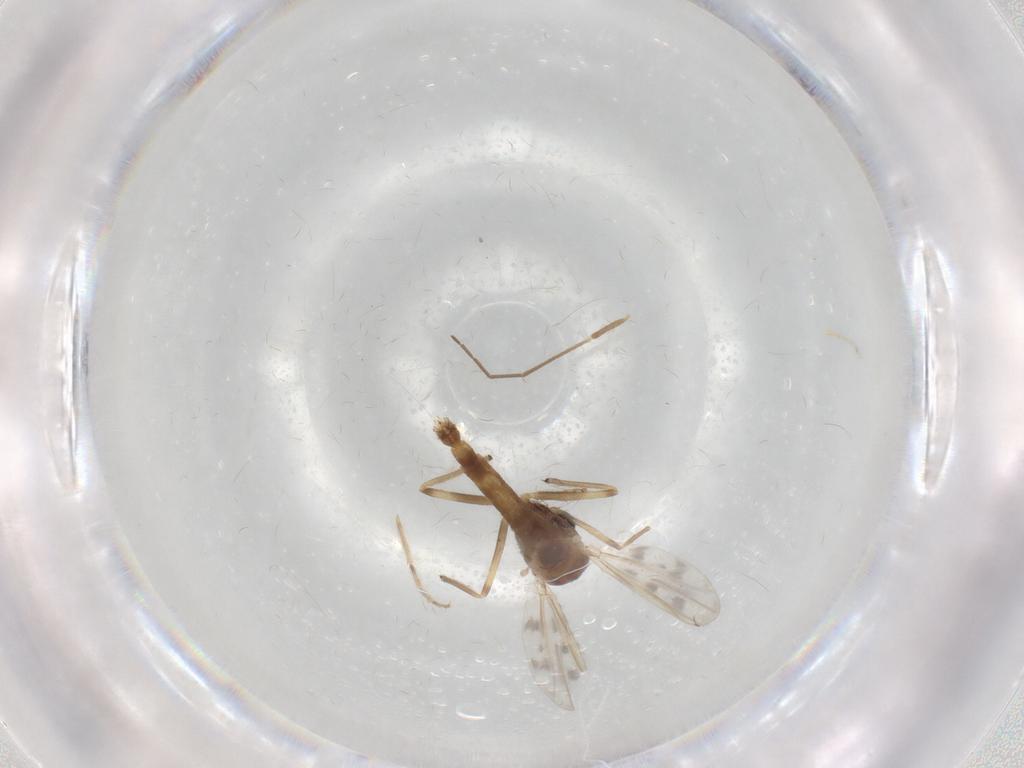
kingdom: Animalia
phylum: Arthropoda
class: Insecta
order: Diptera
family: Chironomidae
